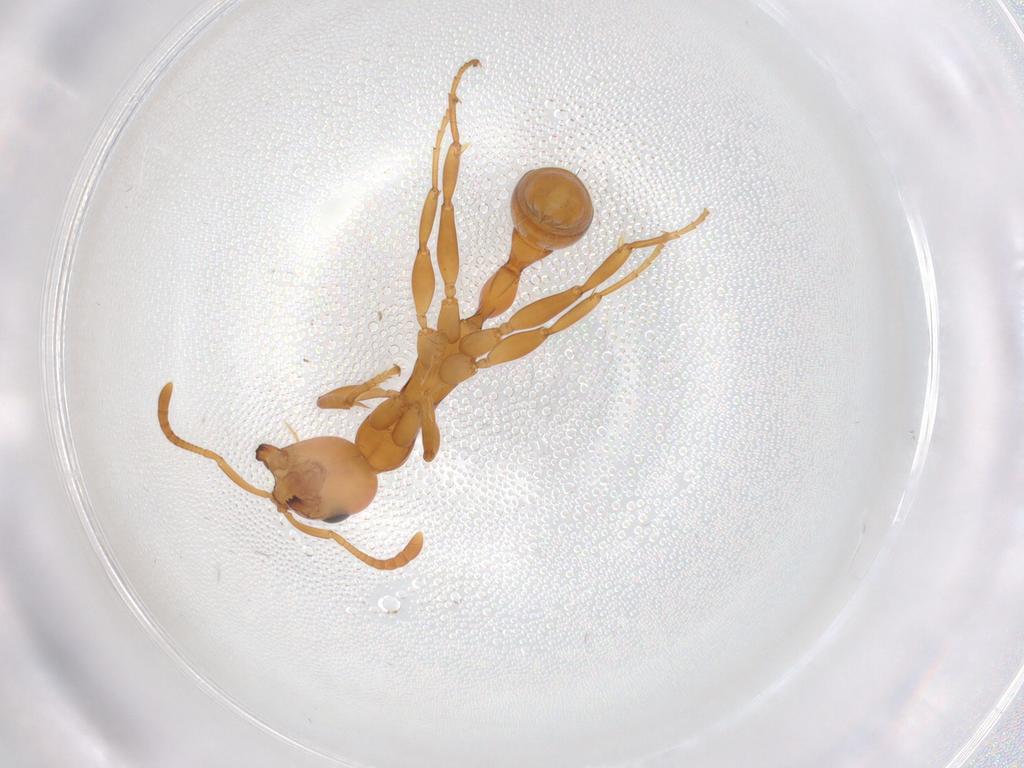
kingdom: Animalia
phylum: Arthropoda
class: Insecta
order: Hymenoptera
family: Formicidae
